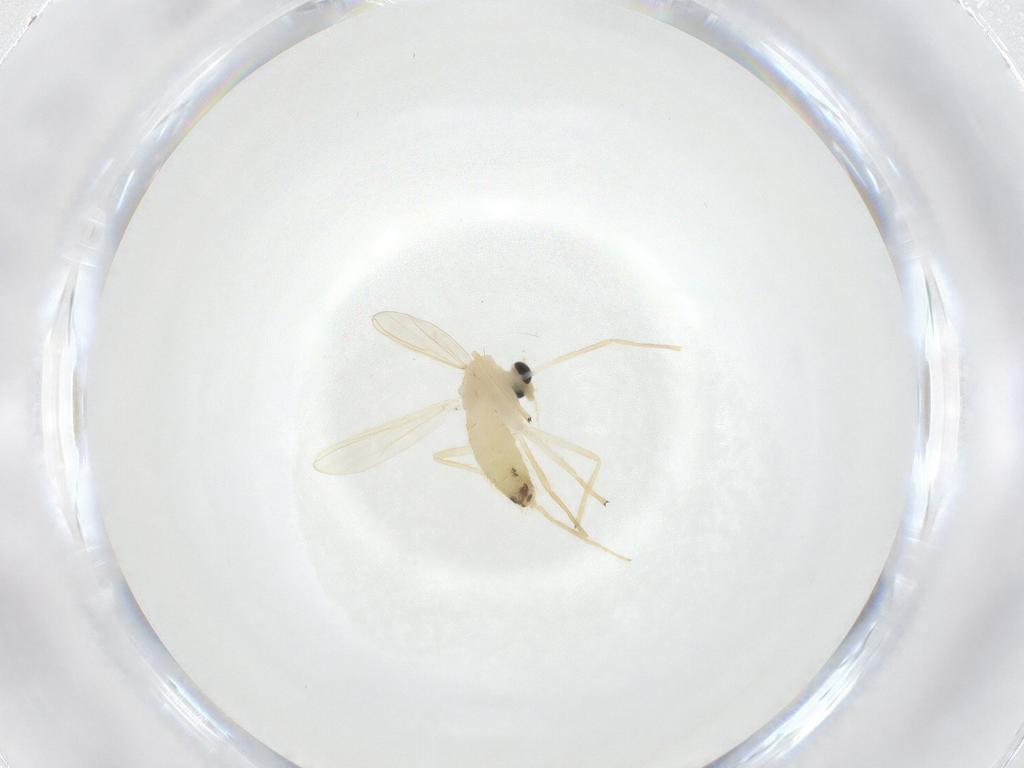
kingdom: Animalia
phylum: Arthropoda
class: Insecta
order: Diptera
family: Chironomidae
